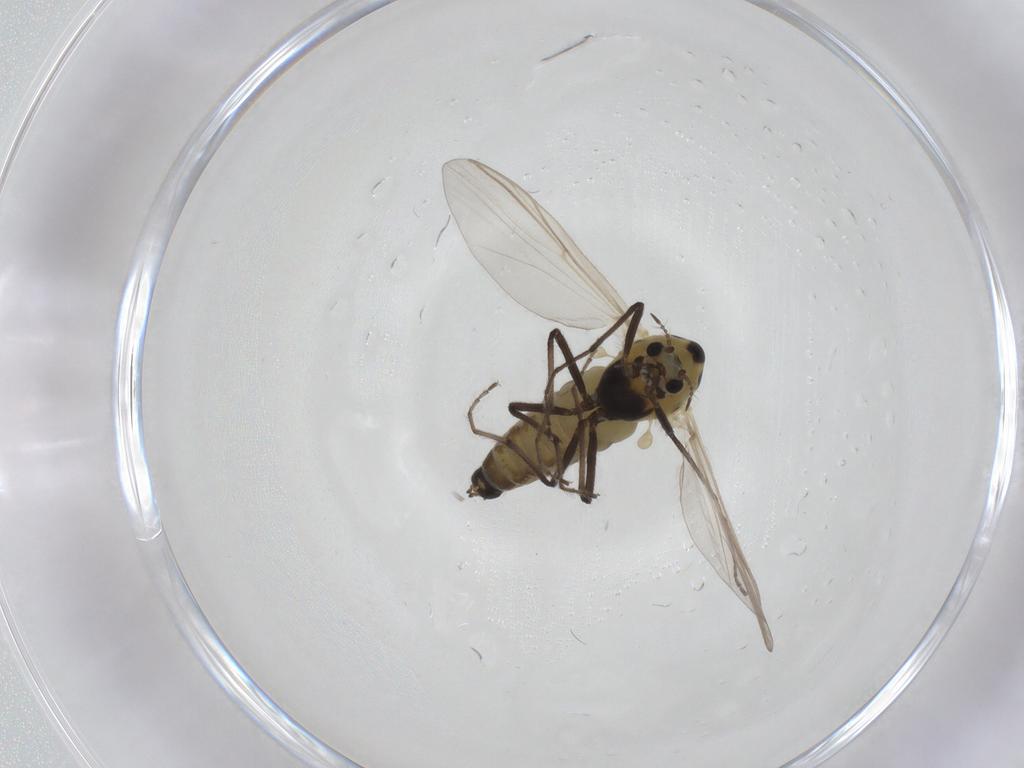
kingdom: Animalia
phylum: Arthropoda
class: Insecta
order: Diptera
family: Chironomidae
